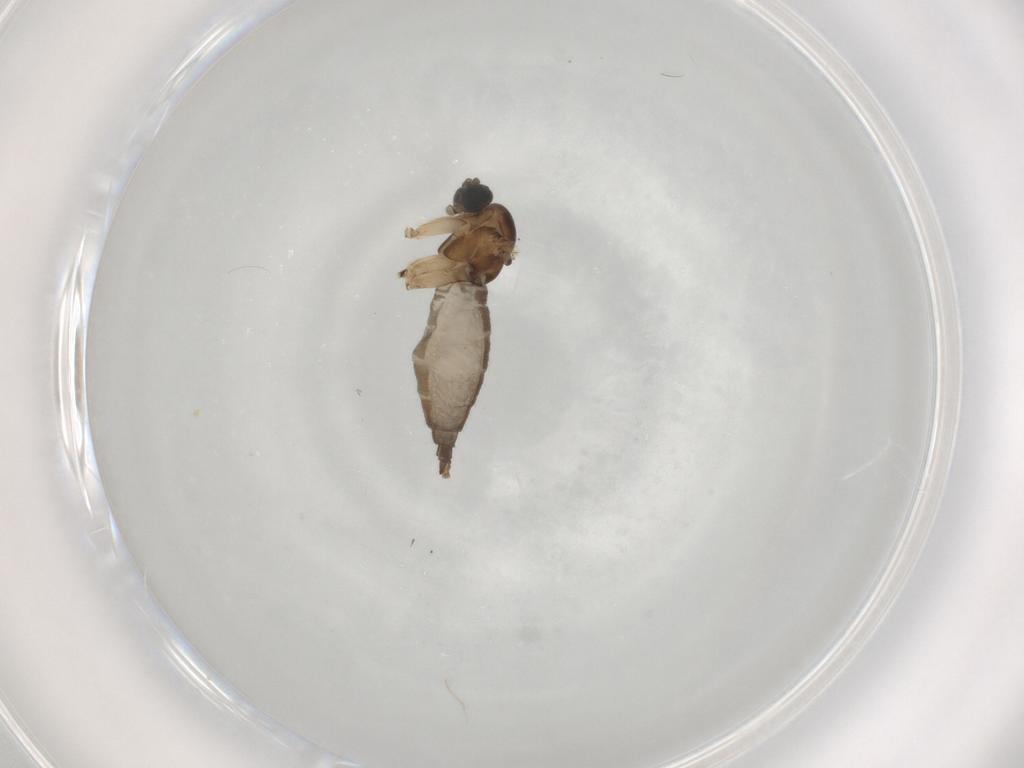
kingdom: Animalia
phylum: Arthropoda
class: Insecta
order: Diptera
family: Sciaridae
